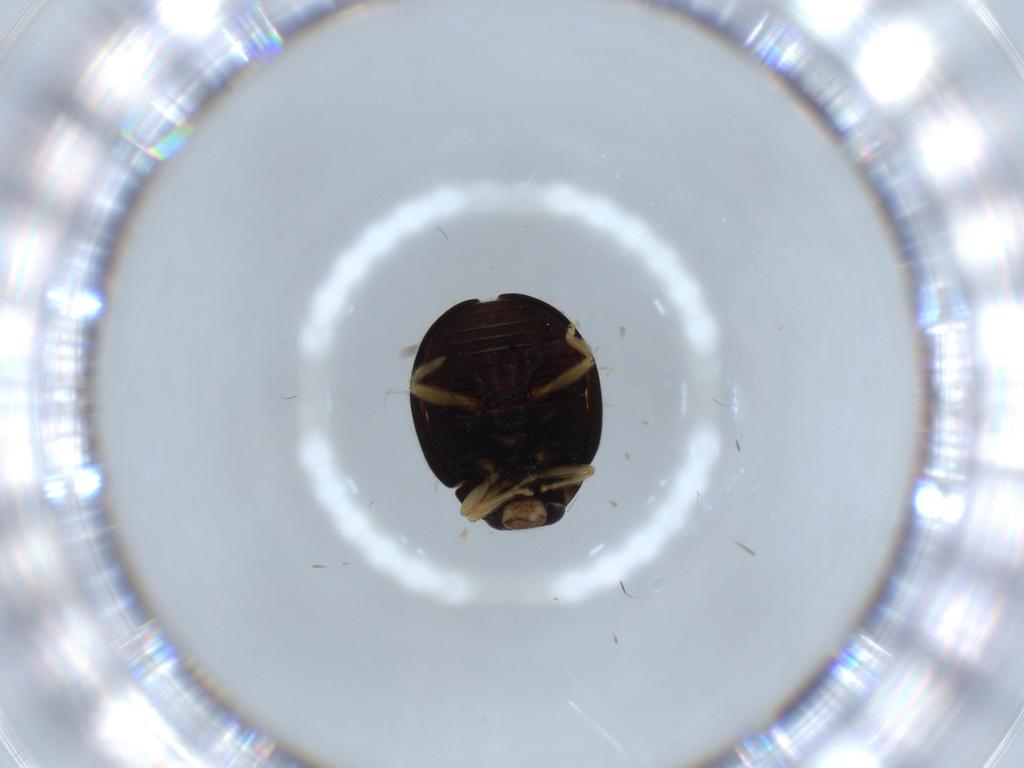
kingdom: Animalia
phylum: Arthropoda
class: Insecta
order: Coleoptera
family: Coccinellidae
